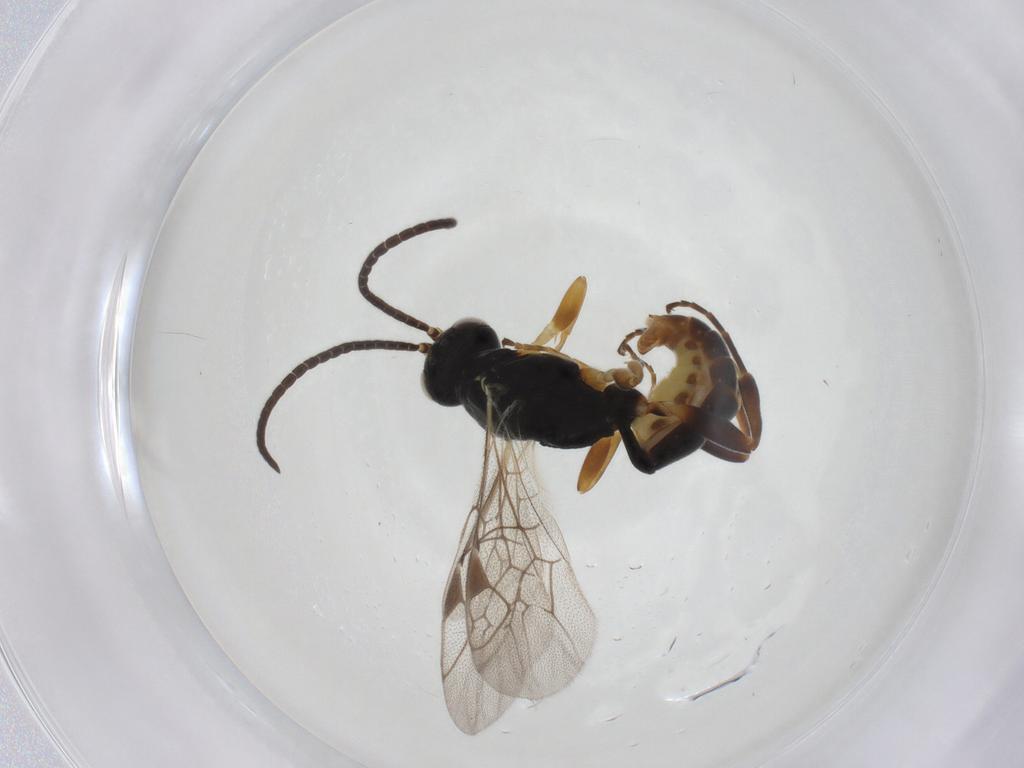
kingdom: Animalia
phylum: Arthropoda
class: Insecta
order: Hymenoptera
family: Ichneumonidae
